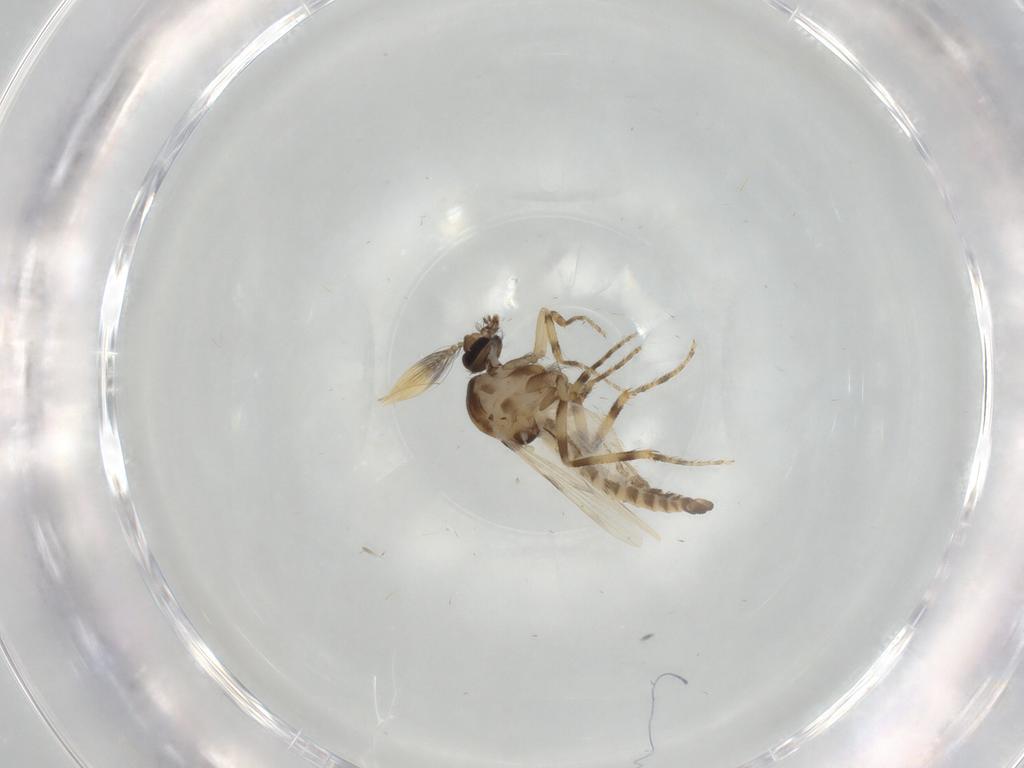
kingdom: Animalia
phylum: Arthropoda
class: Insecta
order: Diptera
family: Ceratopogonidae
